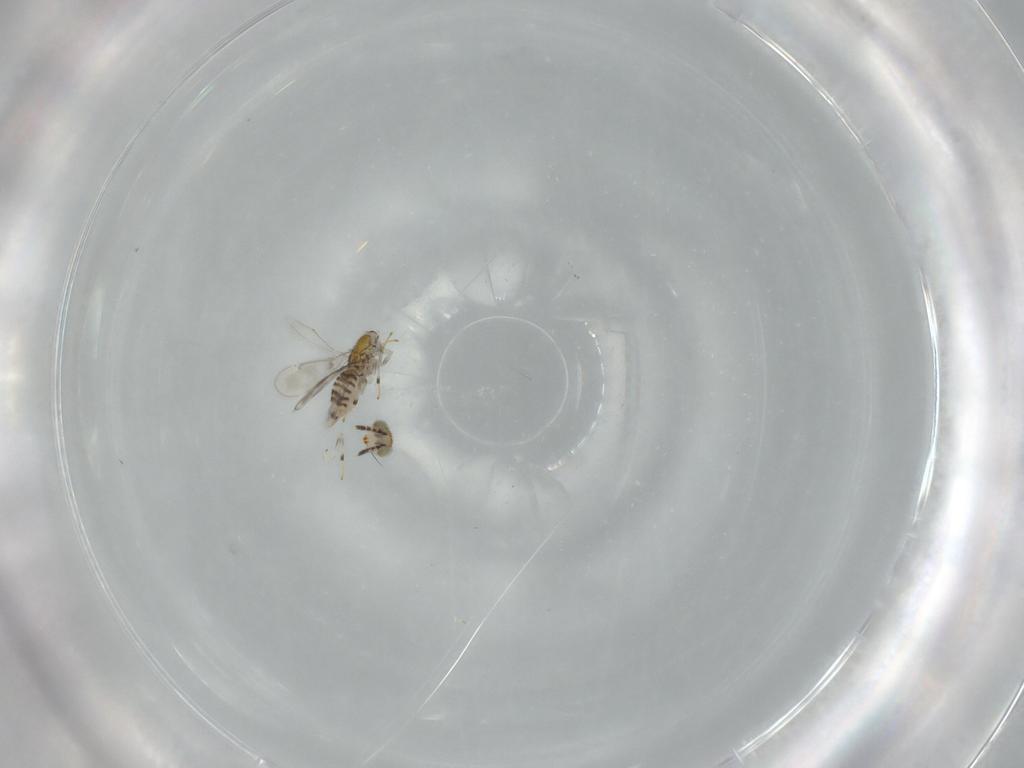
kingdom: Animalia
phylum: Arthropoda
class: Insecta
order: Hymenoptera
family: Aphelinidae
